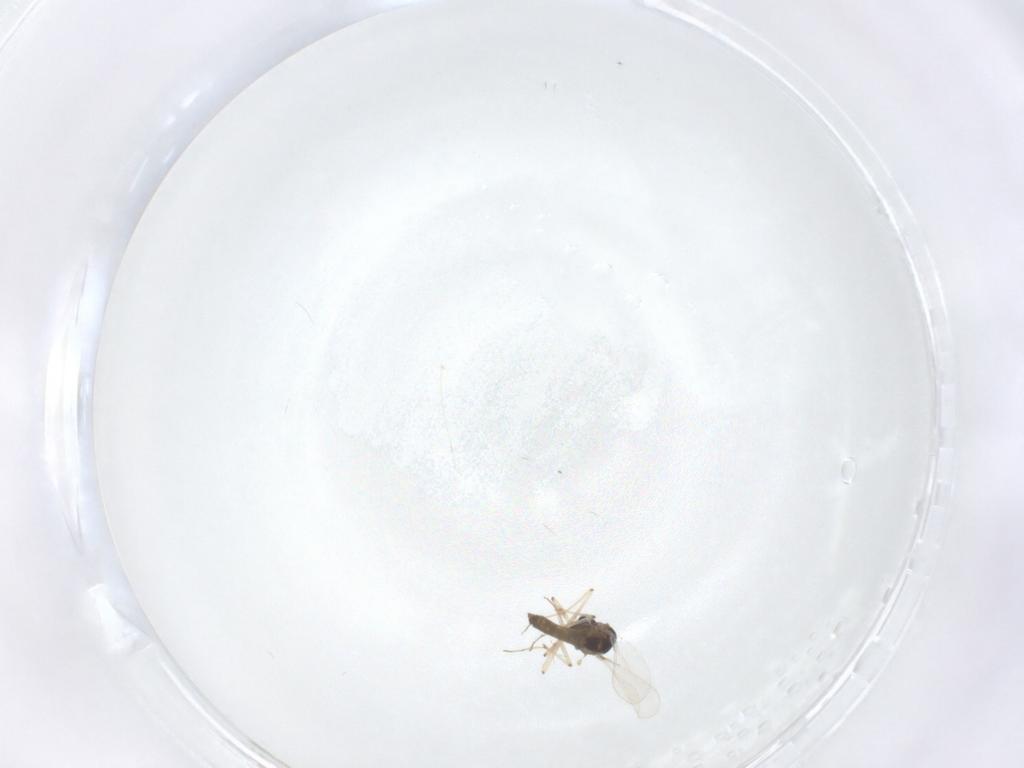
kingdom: Animalia
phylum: Arthropoda
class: Insecta
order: Diptera
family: Chironomidae
